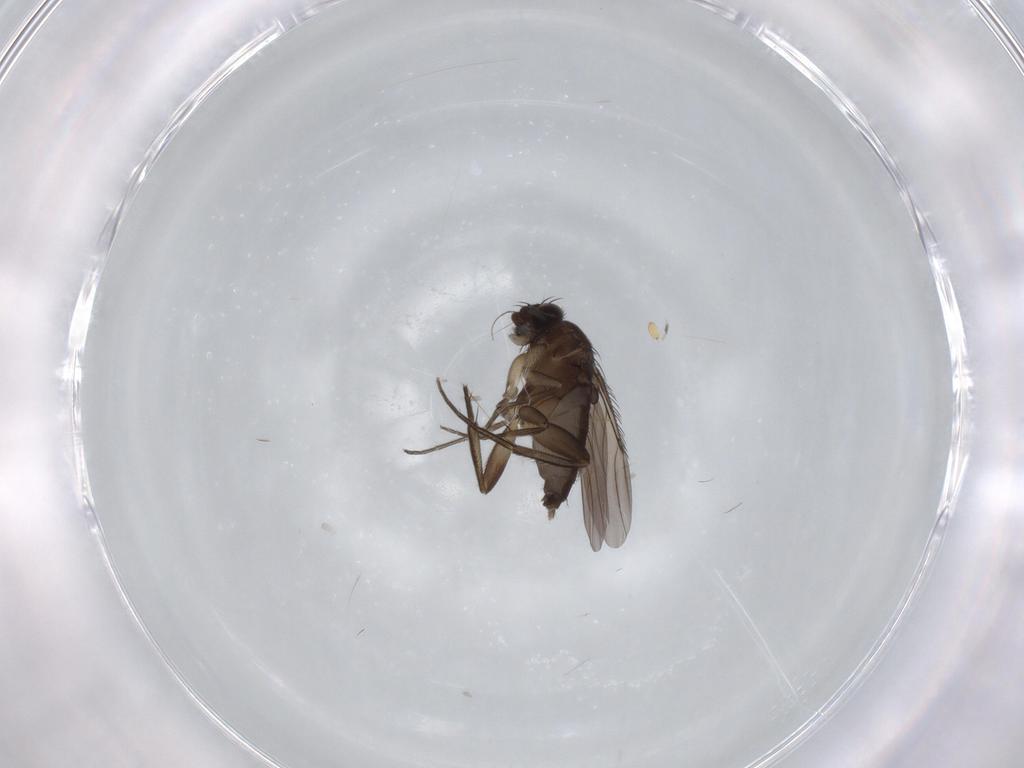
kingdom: Animalia
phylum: Arthropoda
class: Insecta
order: Diptera
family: Phoridae
